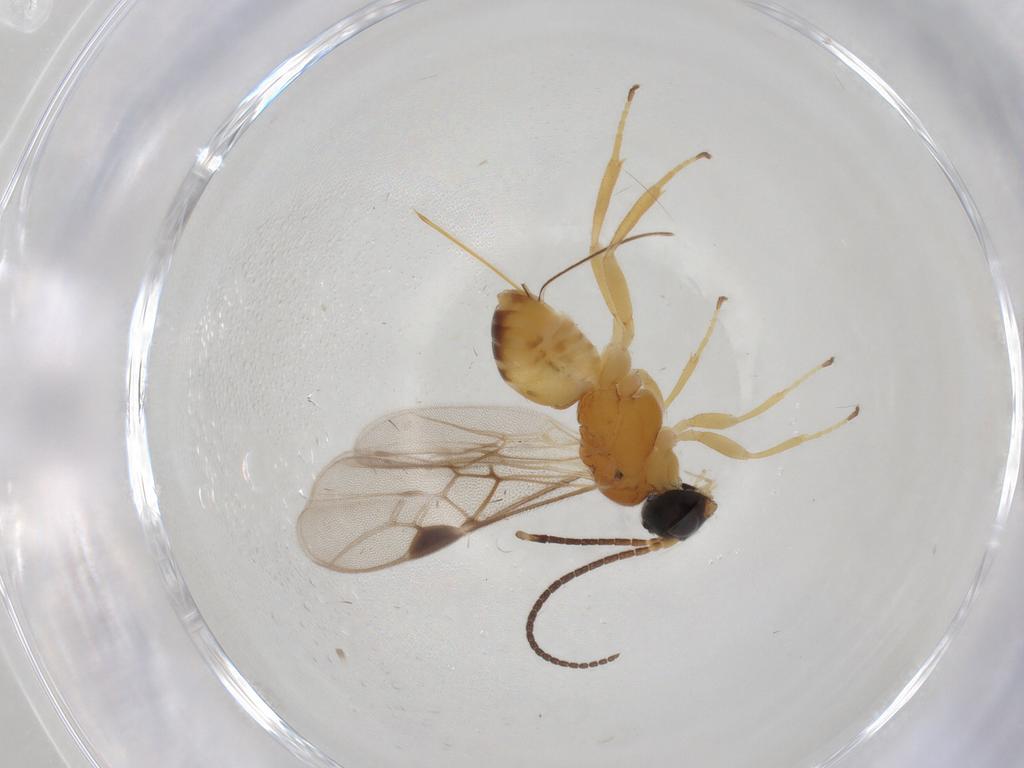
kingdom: Animalia
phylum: Arthropoda
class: Insecta
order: Hymenoptera
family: Braconidae
